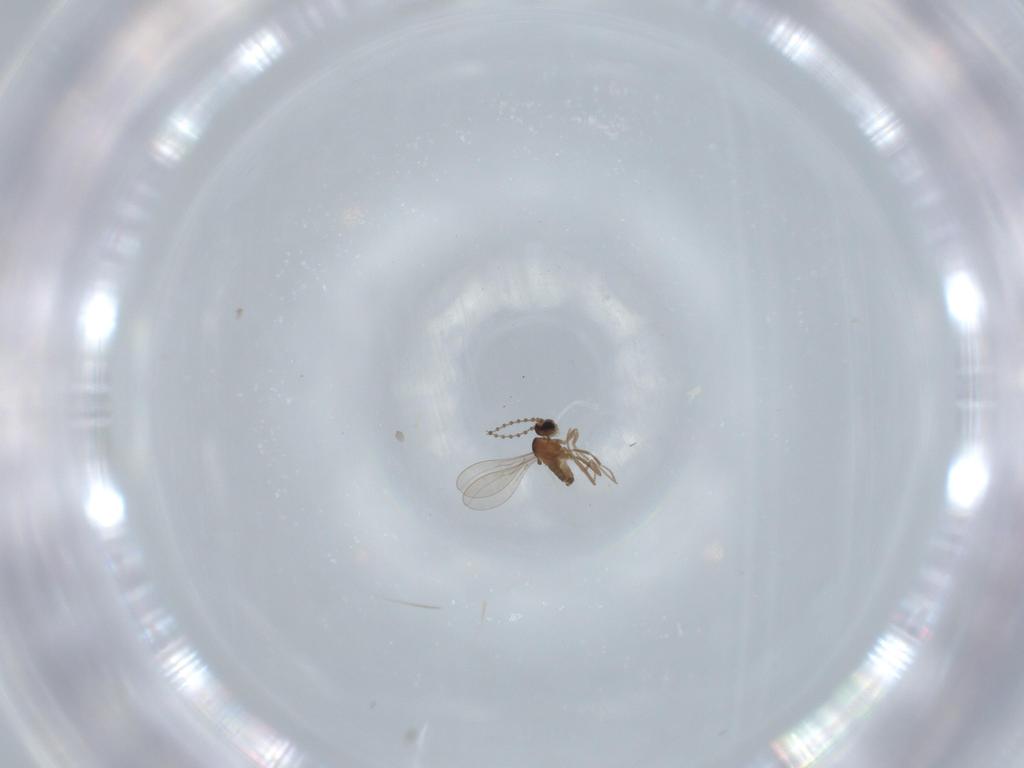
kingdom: Animalia
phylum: Arthropoda
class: Insecta
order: Diptera
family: Cecidomyiidae
